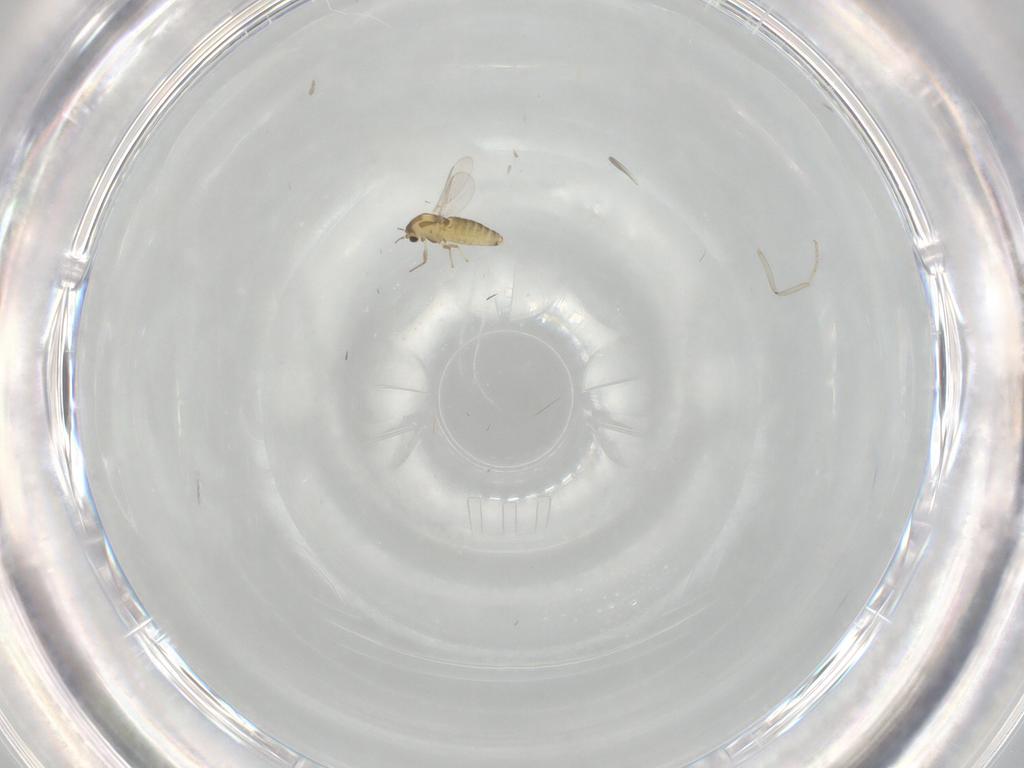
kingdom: Animalia
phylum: Arthropoda
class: Insecta
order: Diptera
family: Chironomidae
